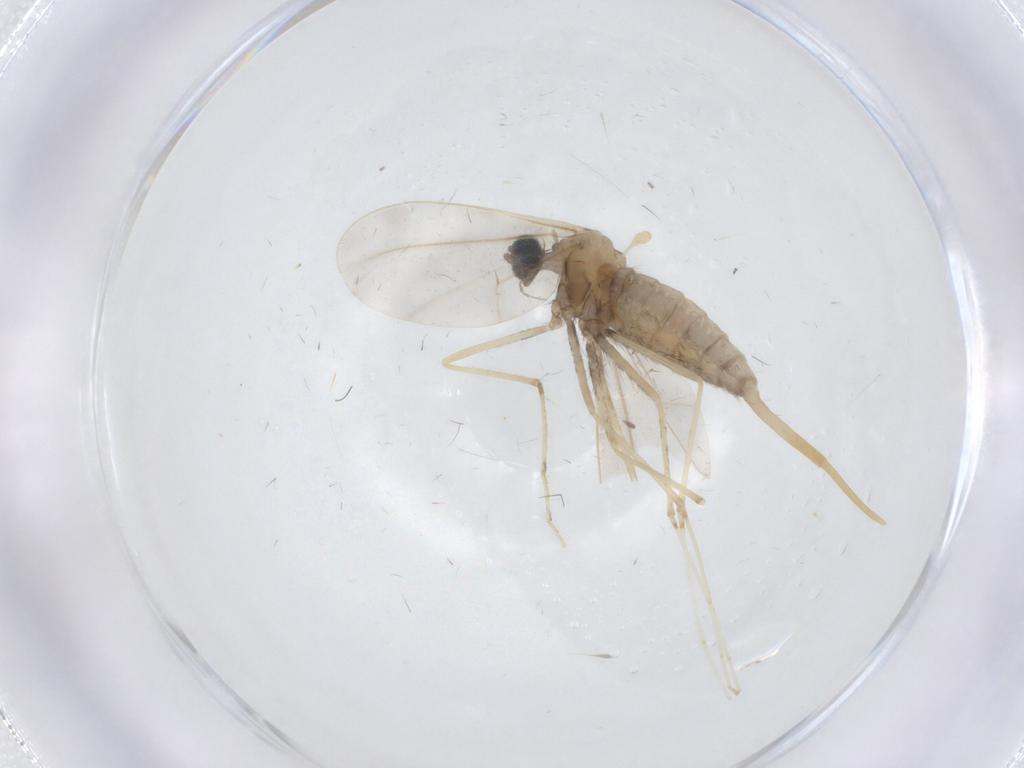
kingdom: Animalia
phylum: Arthropoda
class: Insecta
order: Diptera
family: Cecidomyiidae
